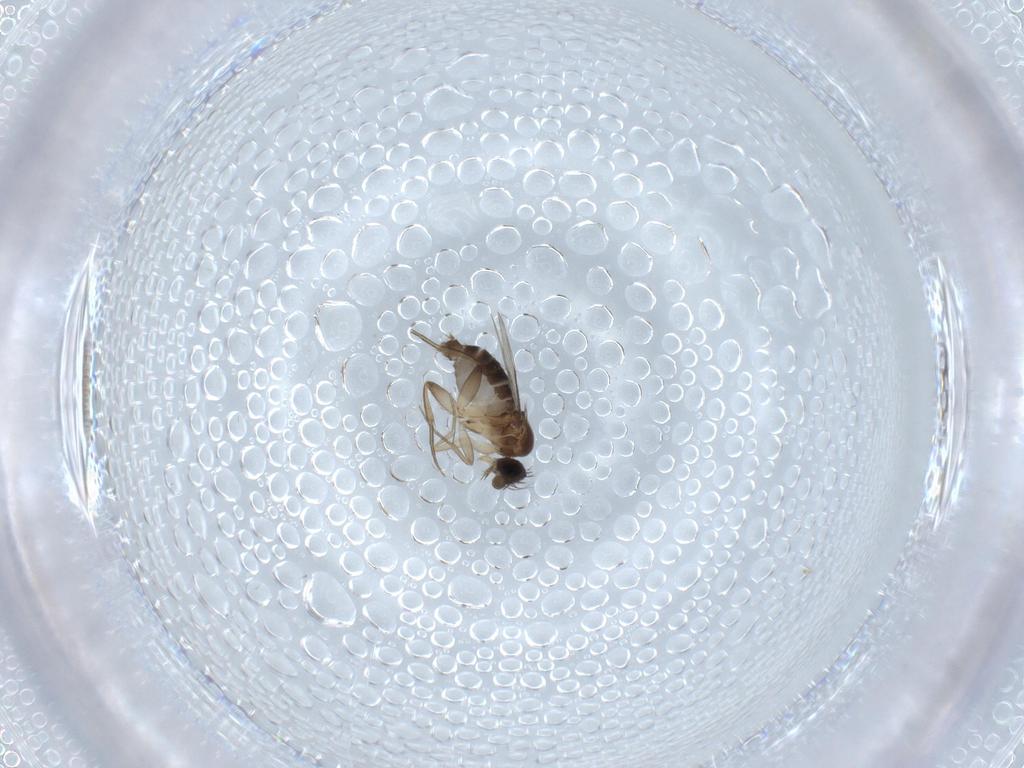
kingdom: Animalia
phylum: Arthropoda
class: Insecta
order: Diptera
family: Phoridae
